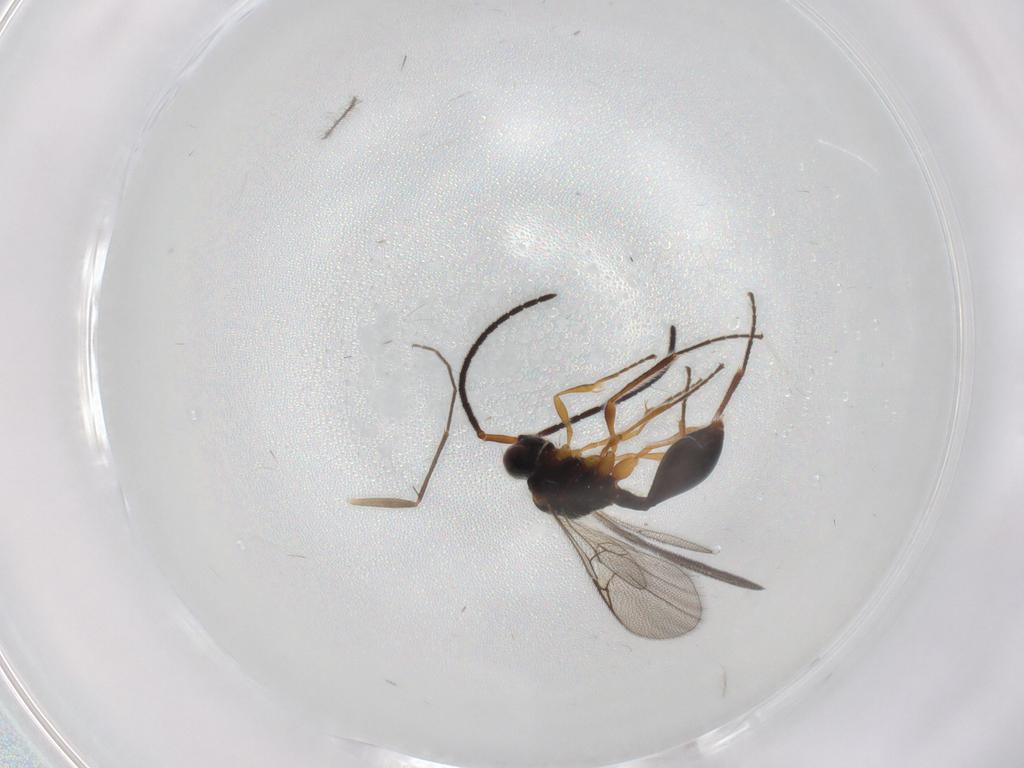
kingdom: Animalia
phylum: Arthropoda
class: Insecta
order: Hymenoptera
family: Diapriidae
